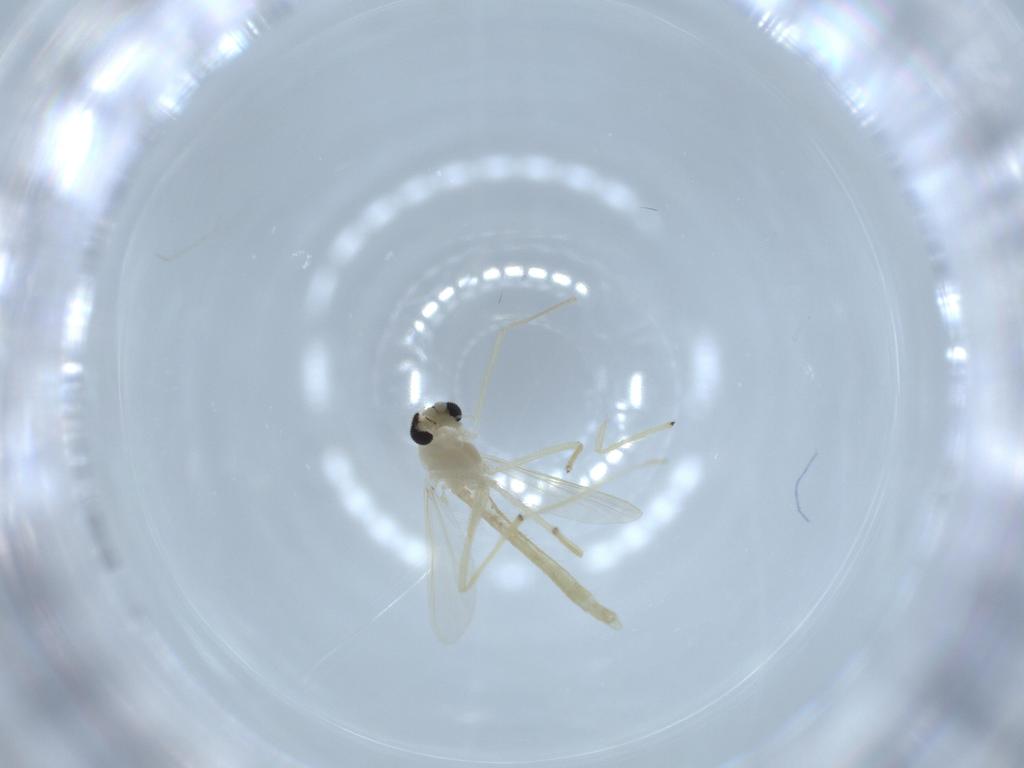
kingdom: Animalia
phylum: Arthropoda
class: Insecta
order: Diptera
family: Chironomidae
